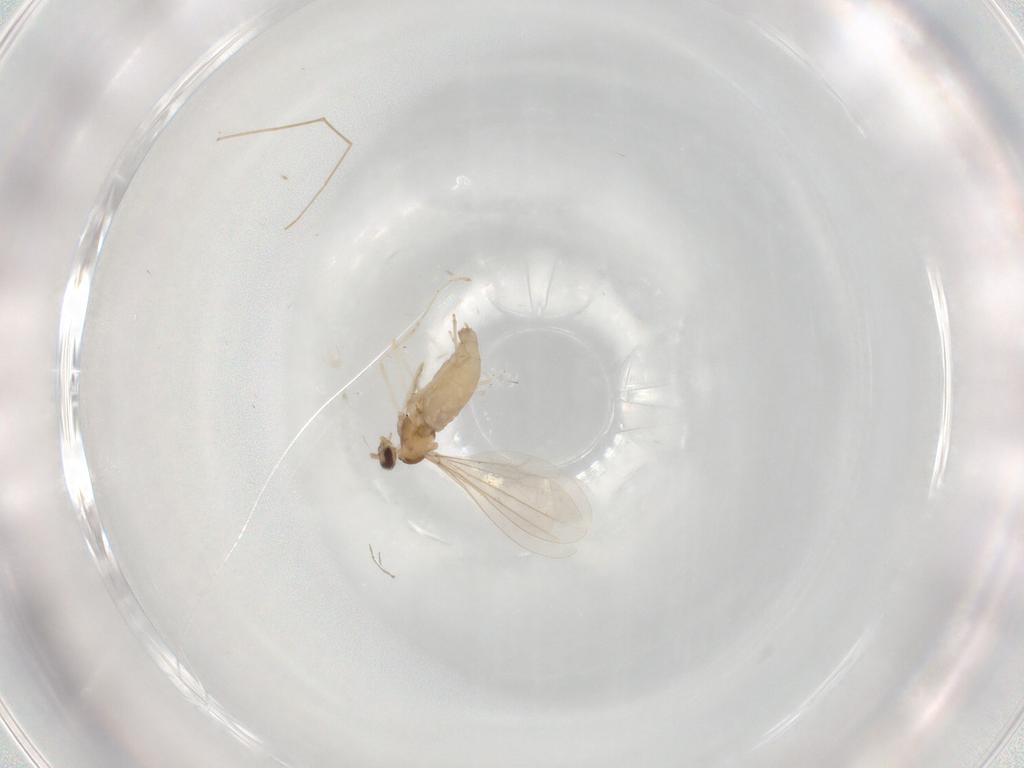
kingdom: Animalia
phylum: Arthropoda
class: Insecta
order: Diptera
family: Cecidomyiidae
